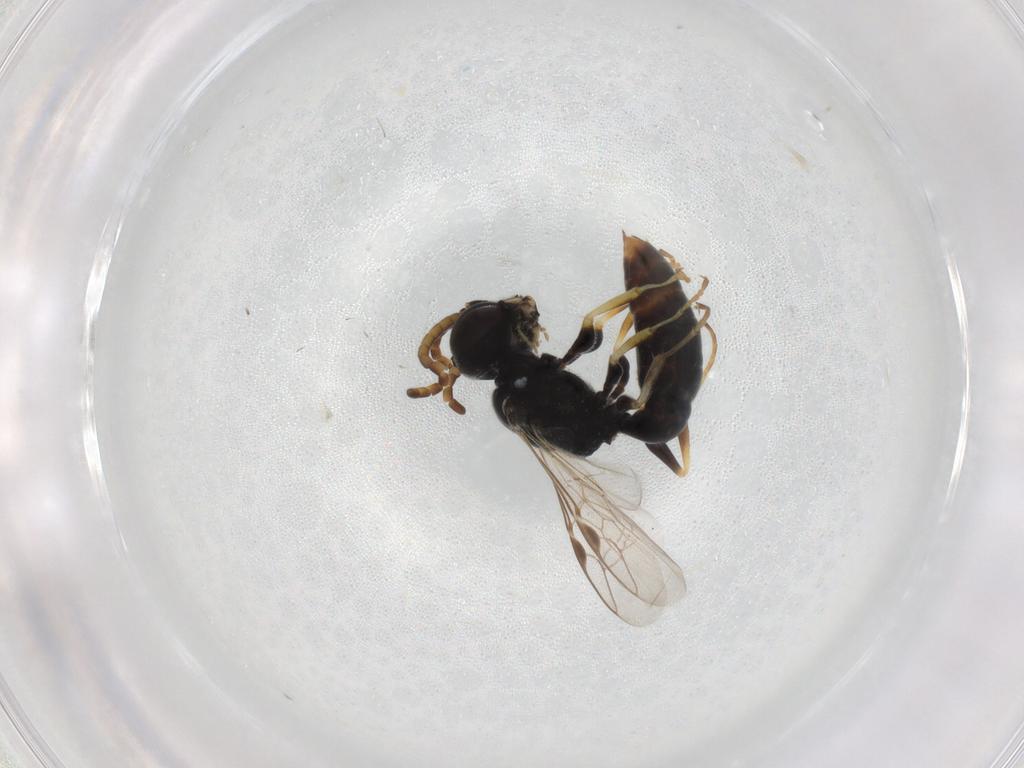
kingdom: Animalia
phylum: Arthropoda
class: Insecta
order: Hymenoptera
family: Crabronidae
